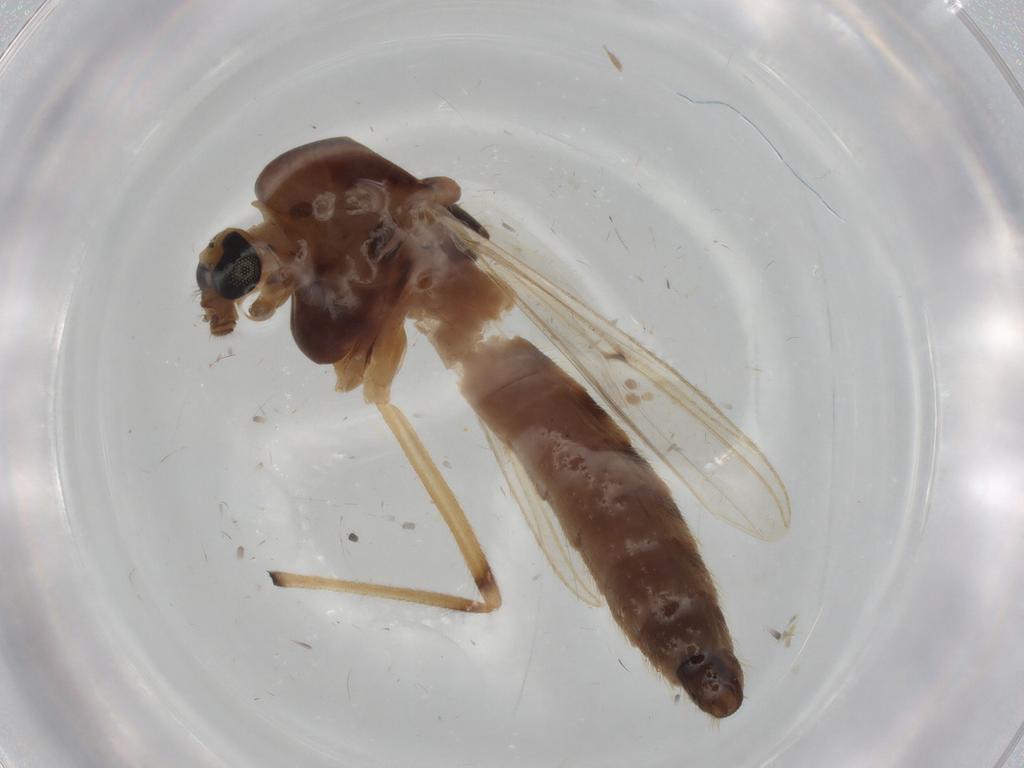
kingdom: Animalia
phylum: Arthropoda
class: Insecta
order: Diptera
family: Chironomidae
